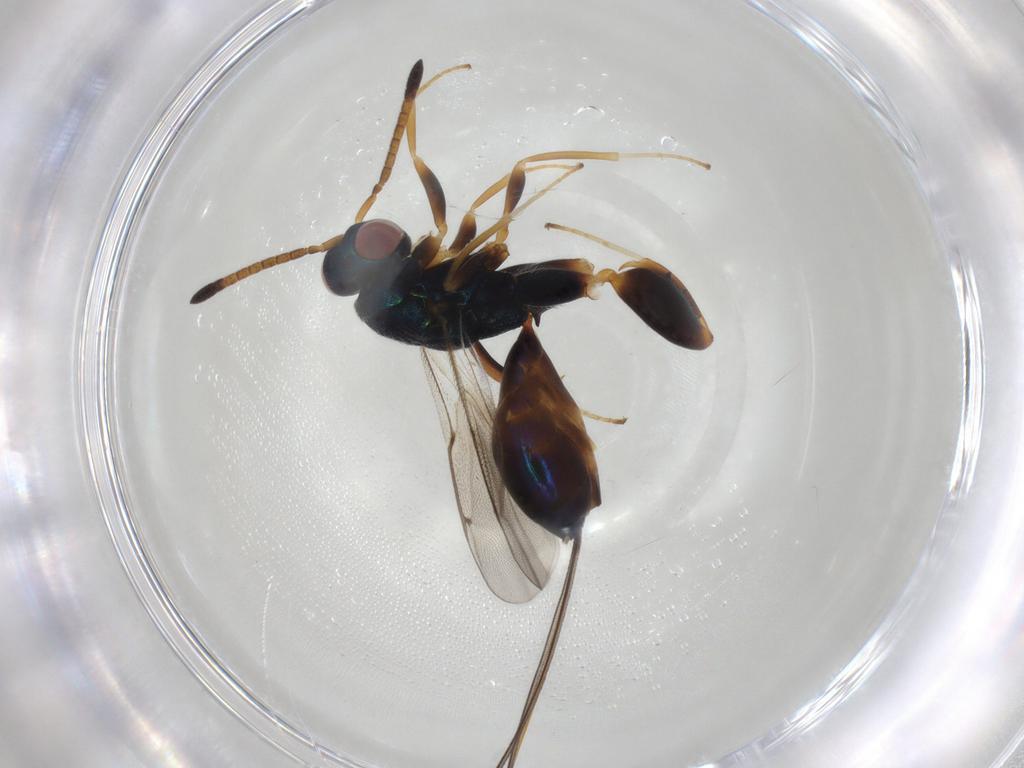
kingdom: Animalia
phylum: Arthropoda
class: Insecta
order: Hymenoptera
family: Torymidae
